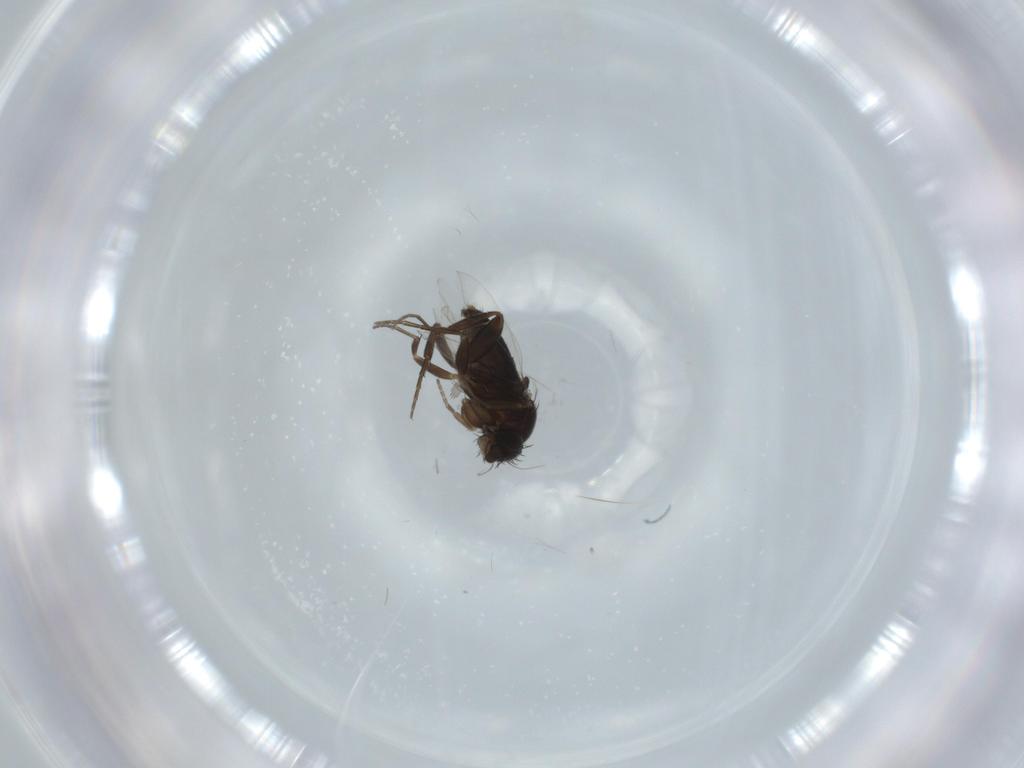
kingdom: Animalia
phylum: Arthropoda
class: Insecta
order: Diptera
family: Phoridae
